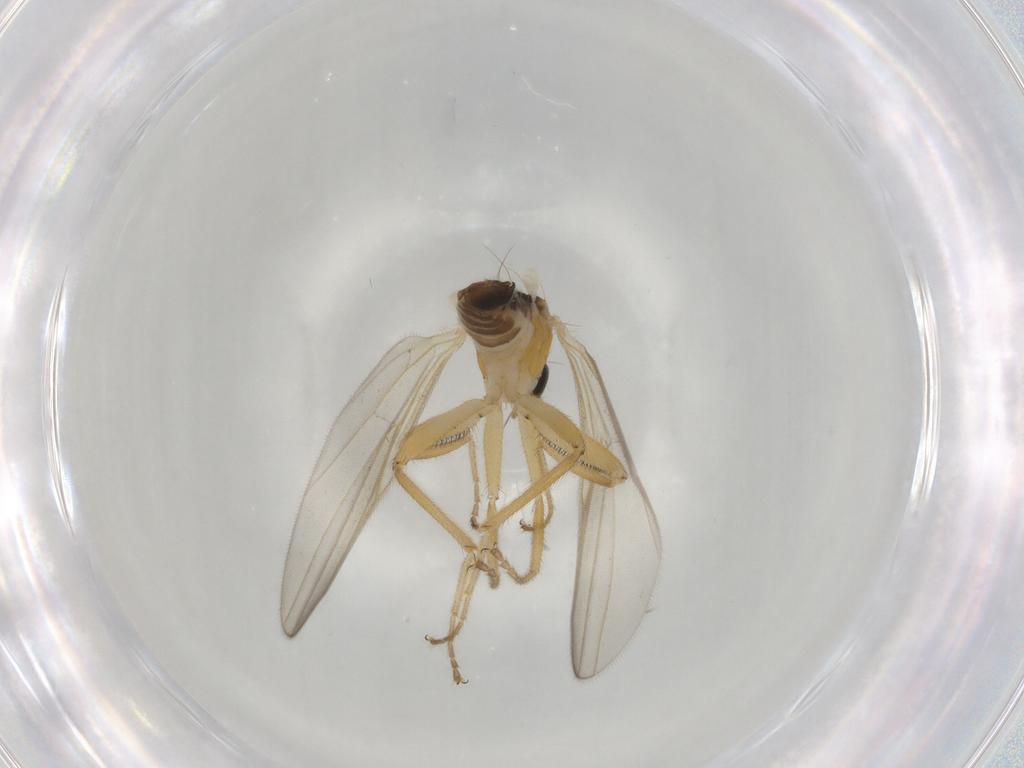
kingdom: Animalia
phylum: Arthropoda
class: Insecta
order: Diptera
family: Hybotidae
